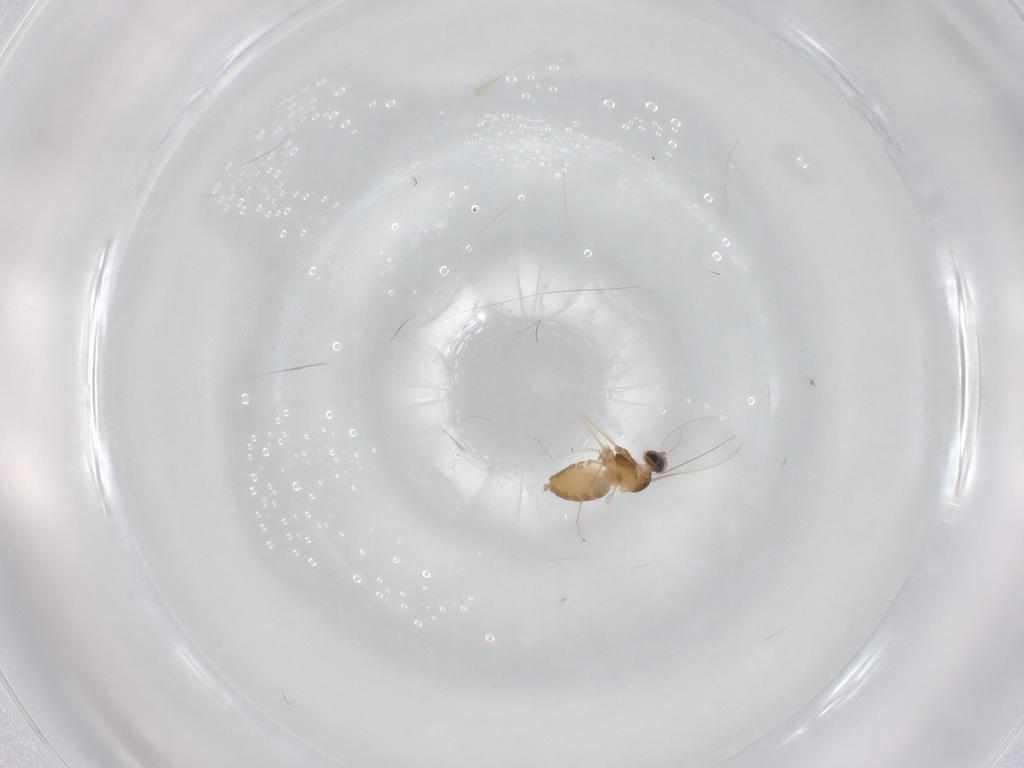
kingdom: Animalia
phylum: Arthropoda
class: Insecta
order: Diptera
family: Cecidomyiidae
